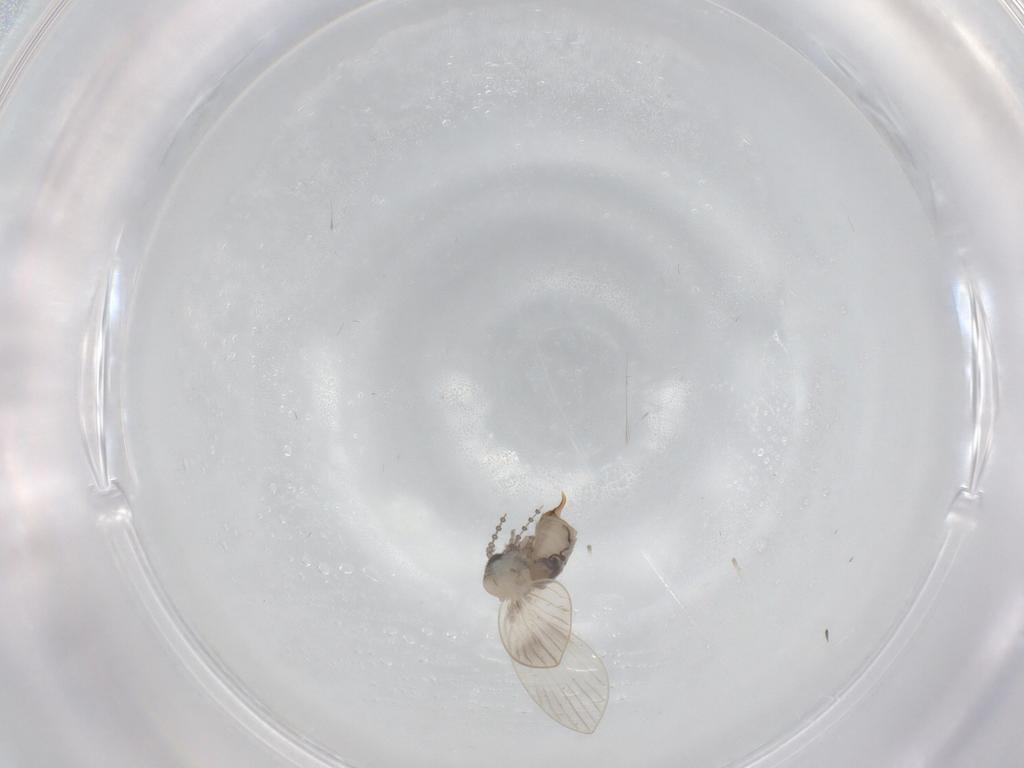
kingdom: Animalia
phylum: Arthropoda
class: Insecta
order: Diptera
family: Psychodidae
